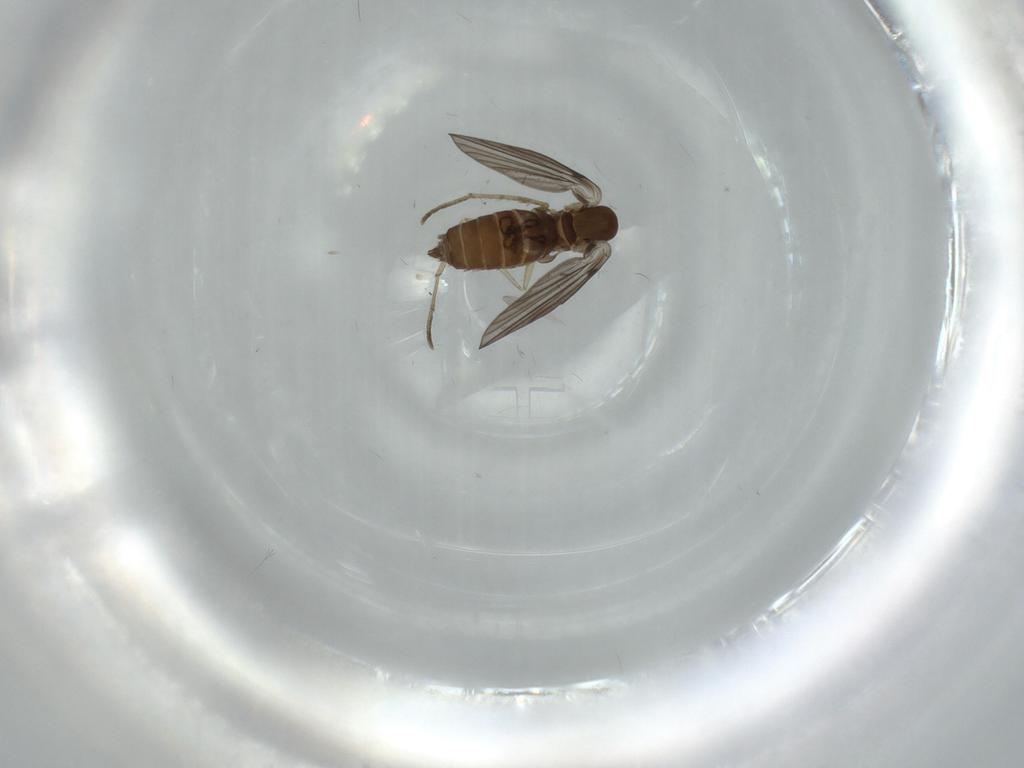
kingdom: Animalia
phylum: Arthropoda
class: Insecta
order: Diptera
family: Psychodidae
